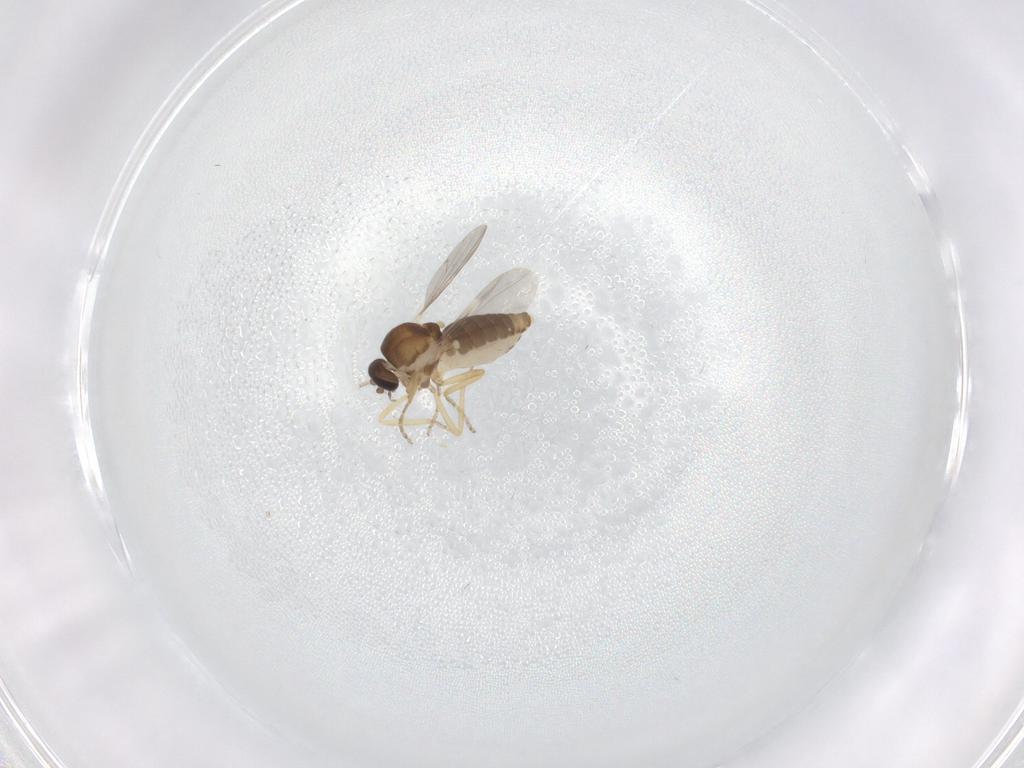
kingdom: Animalia
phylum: Arthropoda
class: Insecta
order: Diptera
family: Ceratopogonidae
